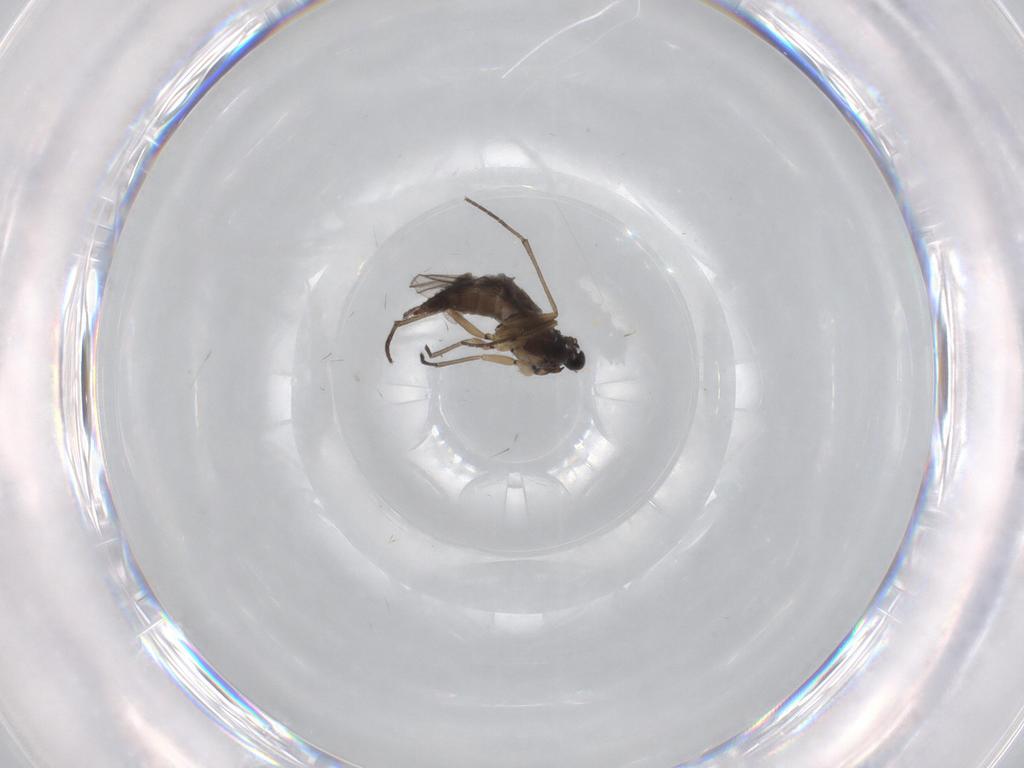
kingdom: Animalia
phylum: Arthropoda
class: Insecta
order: Diptera
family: Sciaridae
